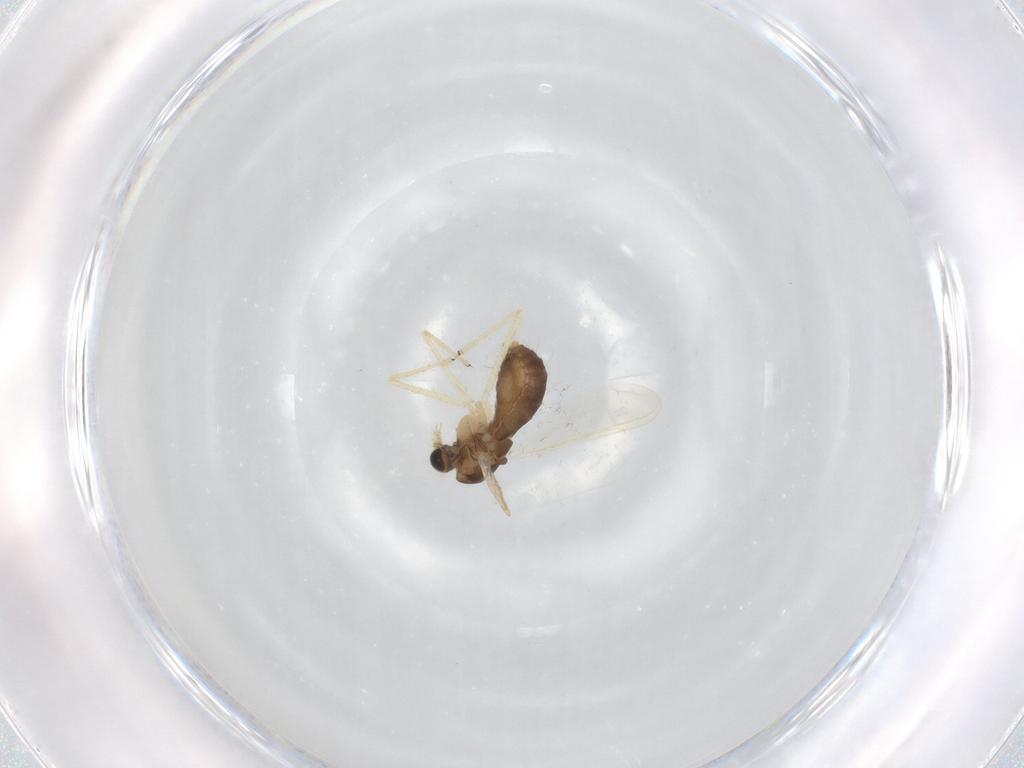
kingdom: Animalia
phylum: Arthropoda
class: Insecta
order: Diptera
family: Chironomidae
